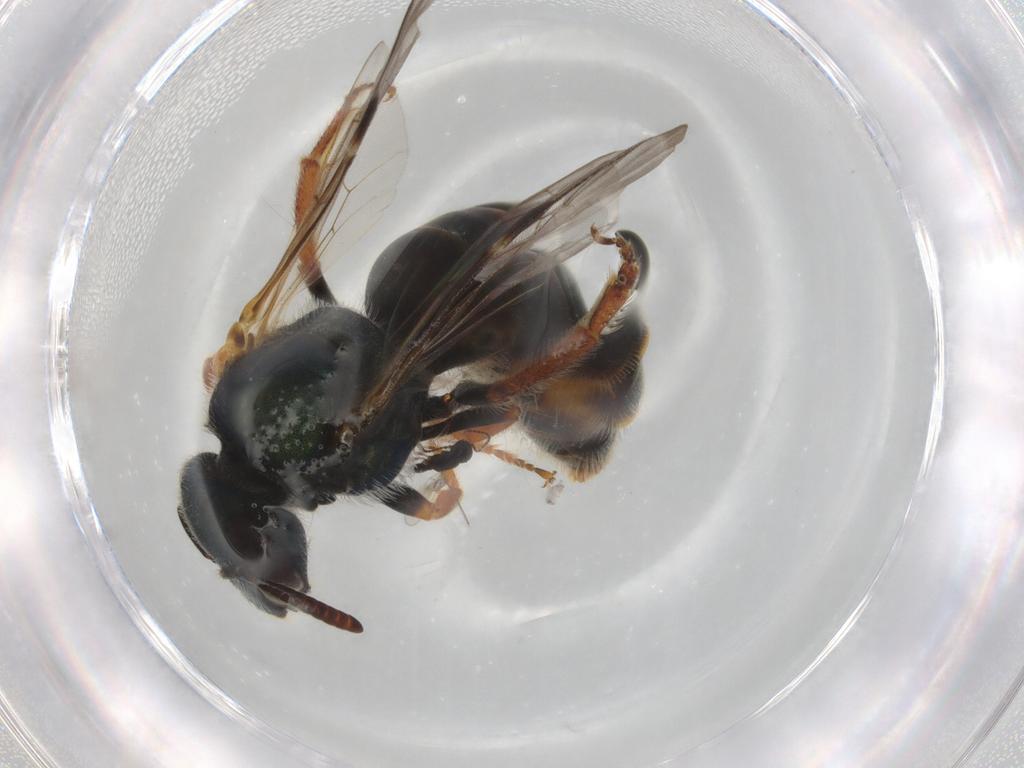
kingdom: Animalia
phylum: Arthropoda
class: Insecta
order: Hymenoptera
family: Halictidae
